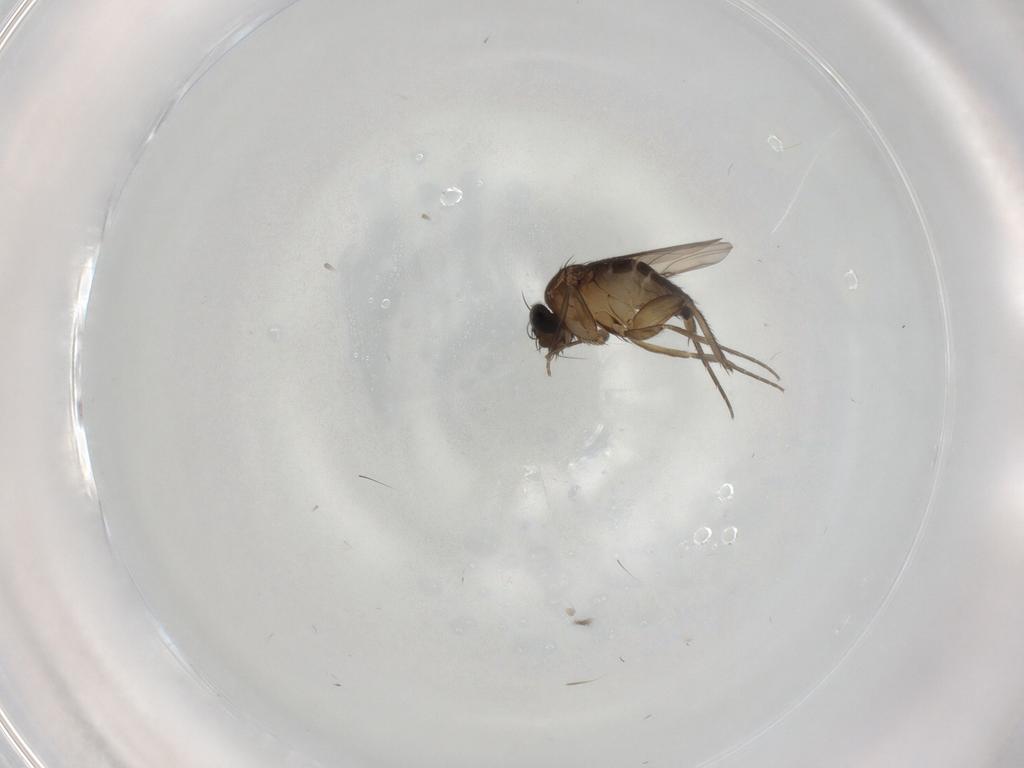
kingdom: Animalia
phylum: Arthropoda
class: Insecta
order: Diptera
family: Phoridae
